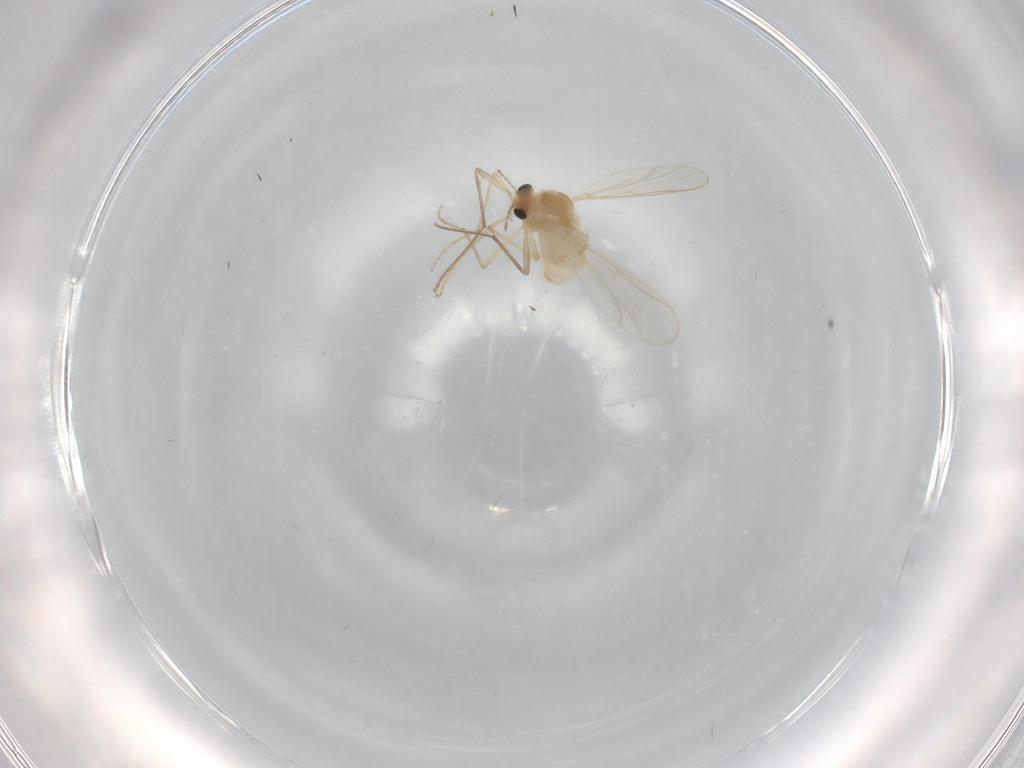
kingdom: Animalia
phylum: Arthropoda
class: Insecta
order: Diptera
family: Chironomidae
